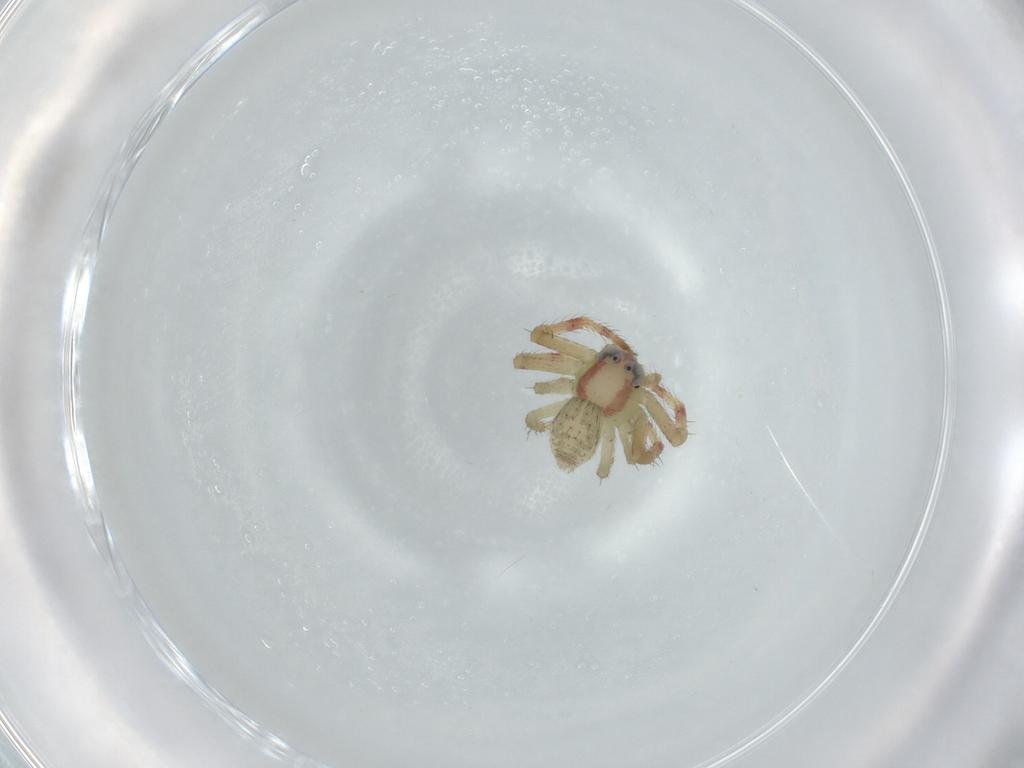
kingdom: Animalia
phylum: Arthropoda
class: Arachnida
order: Araneae
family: Thomisidae
